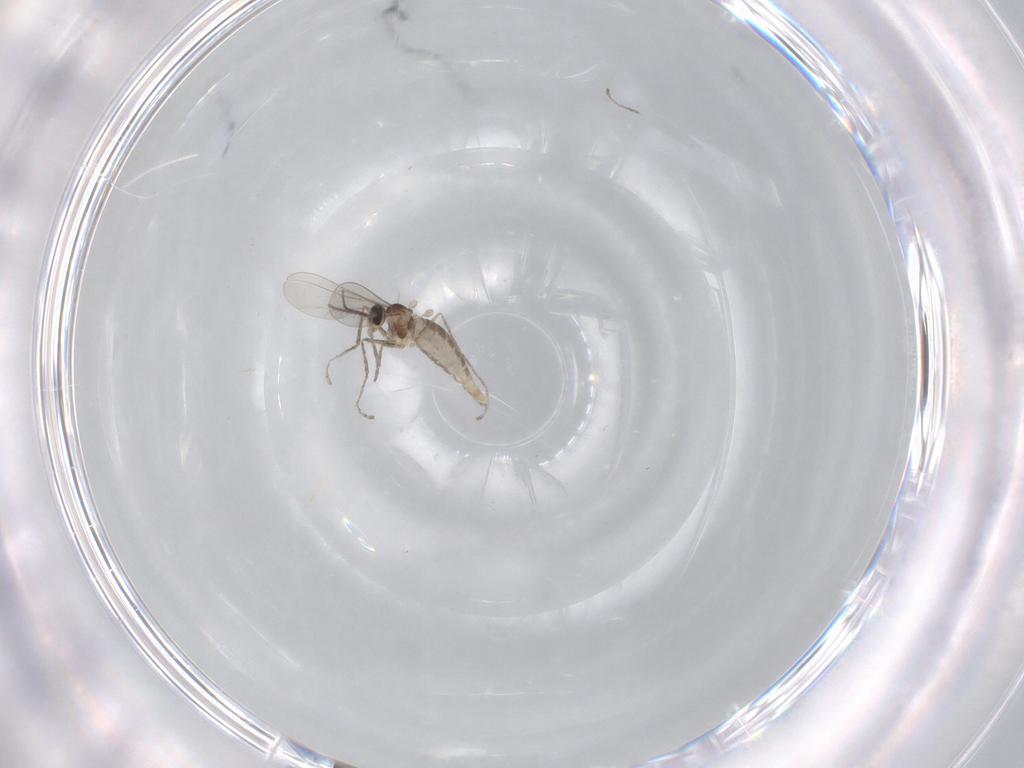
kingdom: Animalia
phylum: Arthropoda
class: Insecta
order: Diptera
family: Chironomidae
